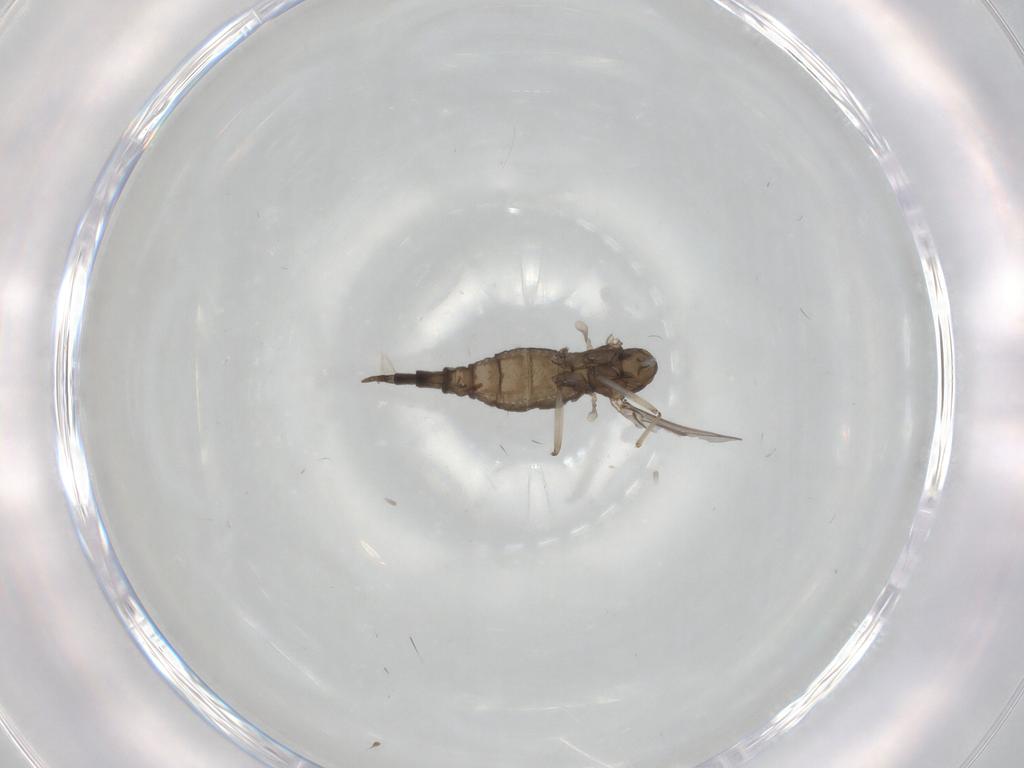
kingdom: Animalia
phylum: Arthropoda
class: Insecta
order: Diptera
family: Cecidomyiidae
